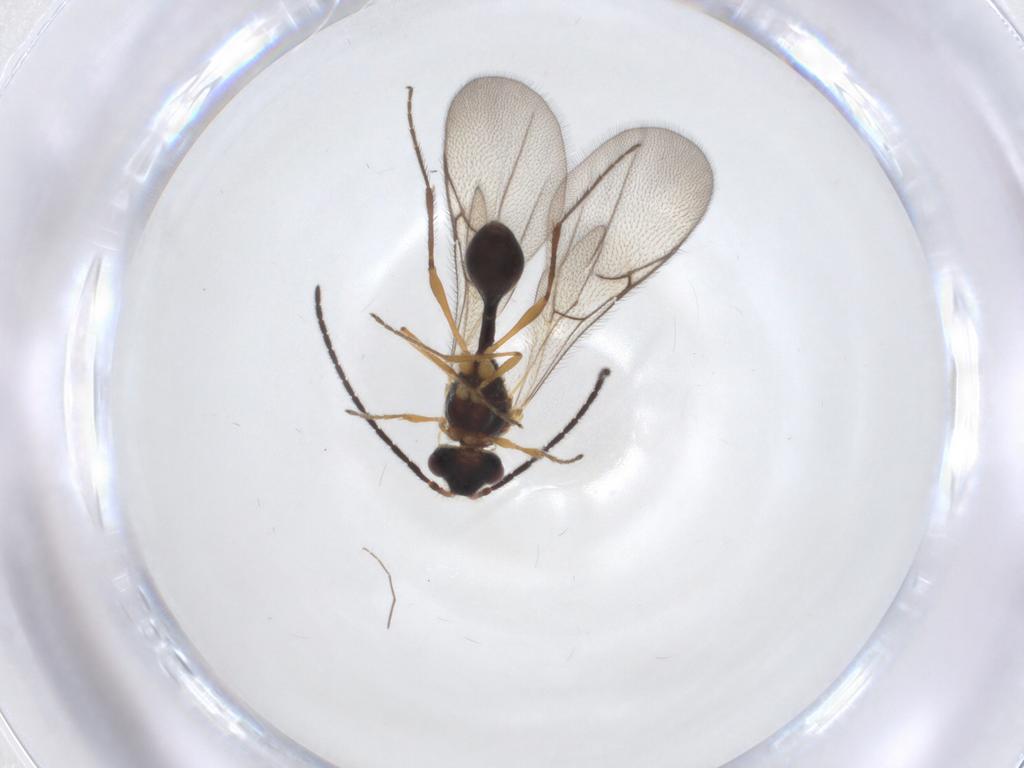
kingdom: Animalia
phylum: Arthropoda
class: Insecta
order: Hymenoptera
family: Diapriidae
